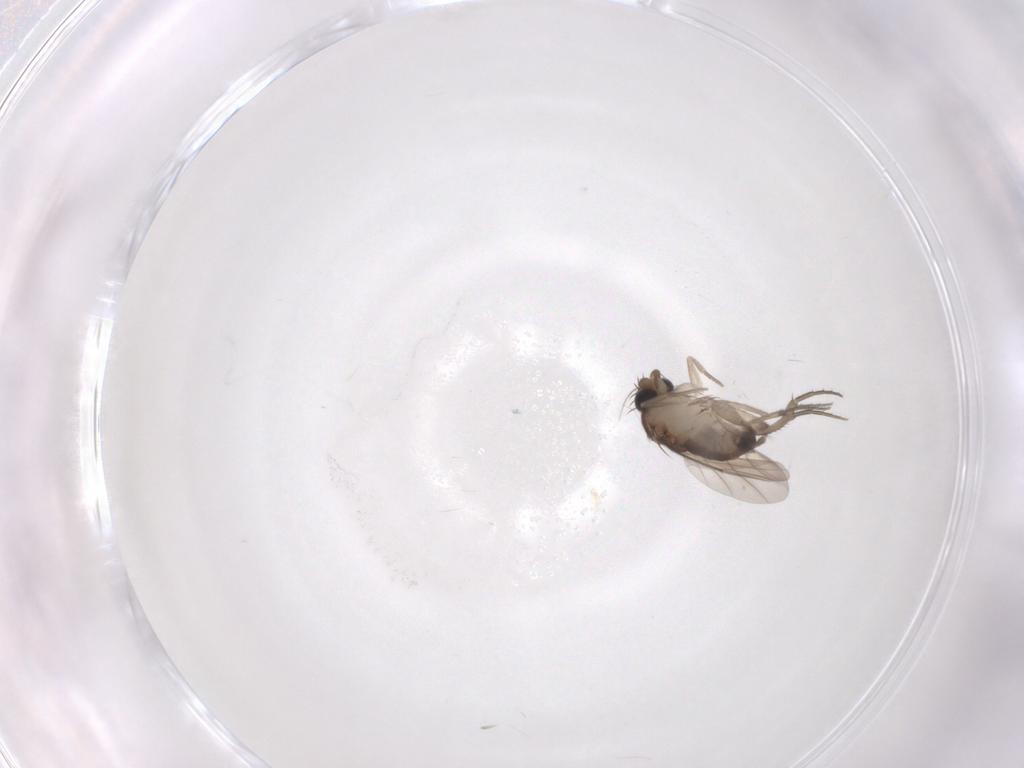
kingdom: Animalia
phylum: Arthropoda
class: Insecta
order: Diptera
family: Phoridae
